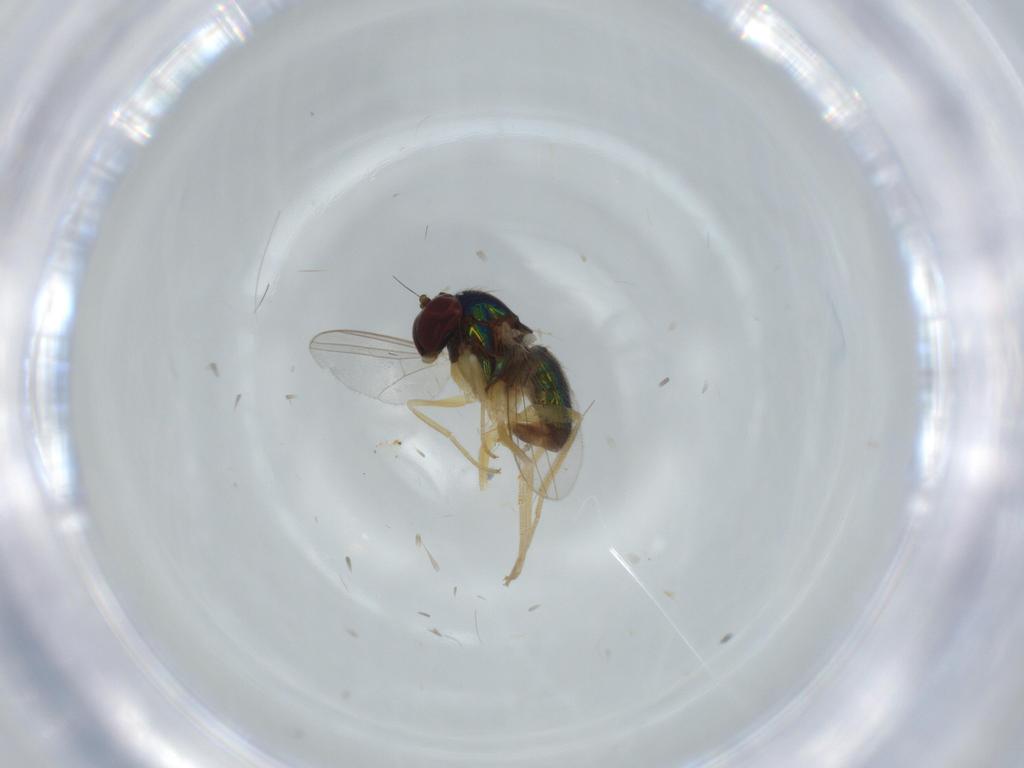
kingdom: Animalia
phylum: Arthropoda
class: Insecta
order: Diptera
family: Dolichopodidae
